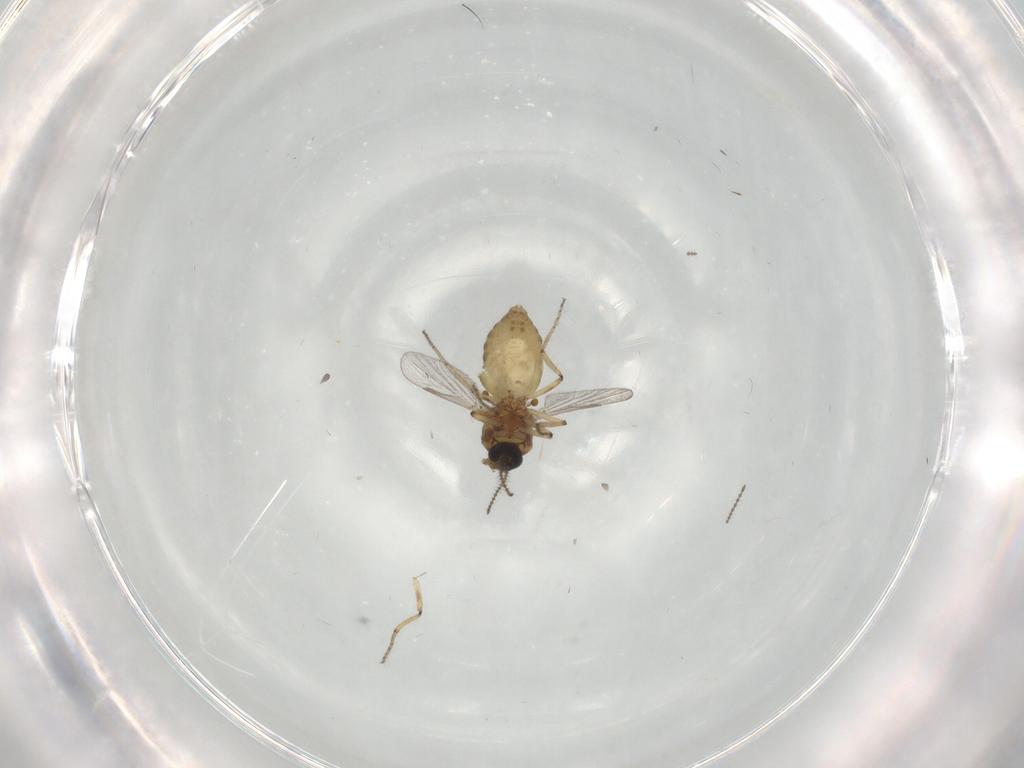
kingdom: Animalia
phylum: Arthropoda
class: Insecta
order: Diptera
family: Ceratopogonidae
